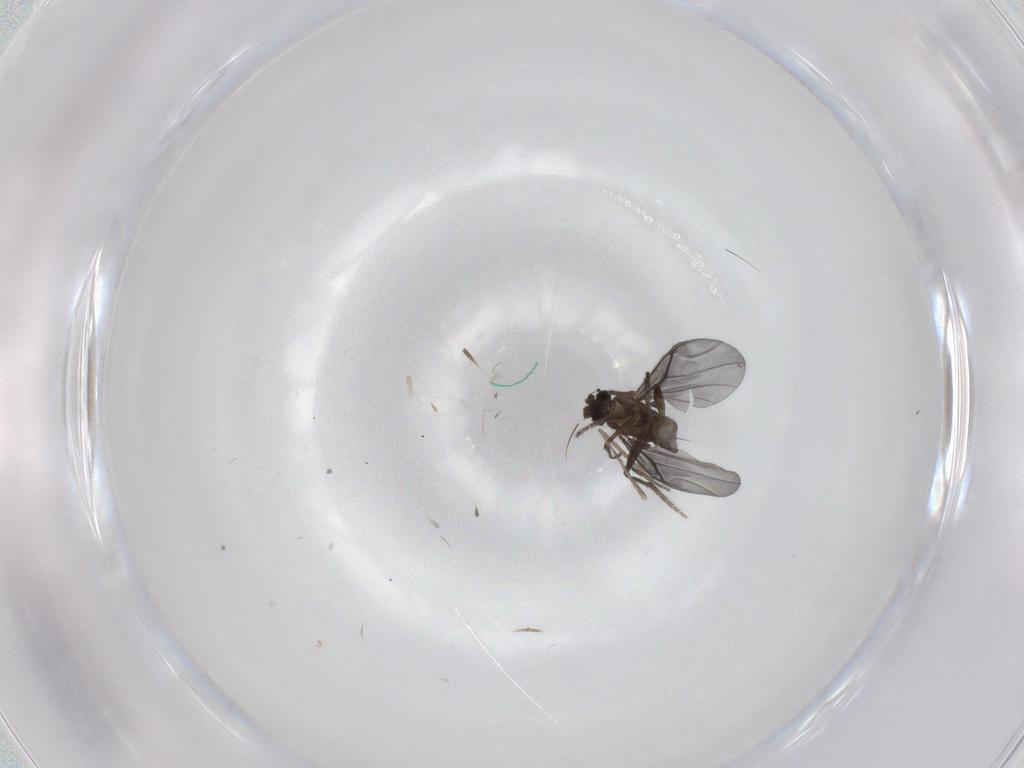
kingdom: Animalia
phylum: Arthropoda
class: Insecta
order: Diptera
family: Phoridae
